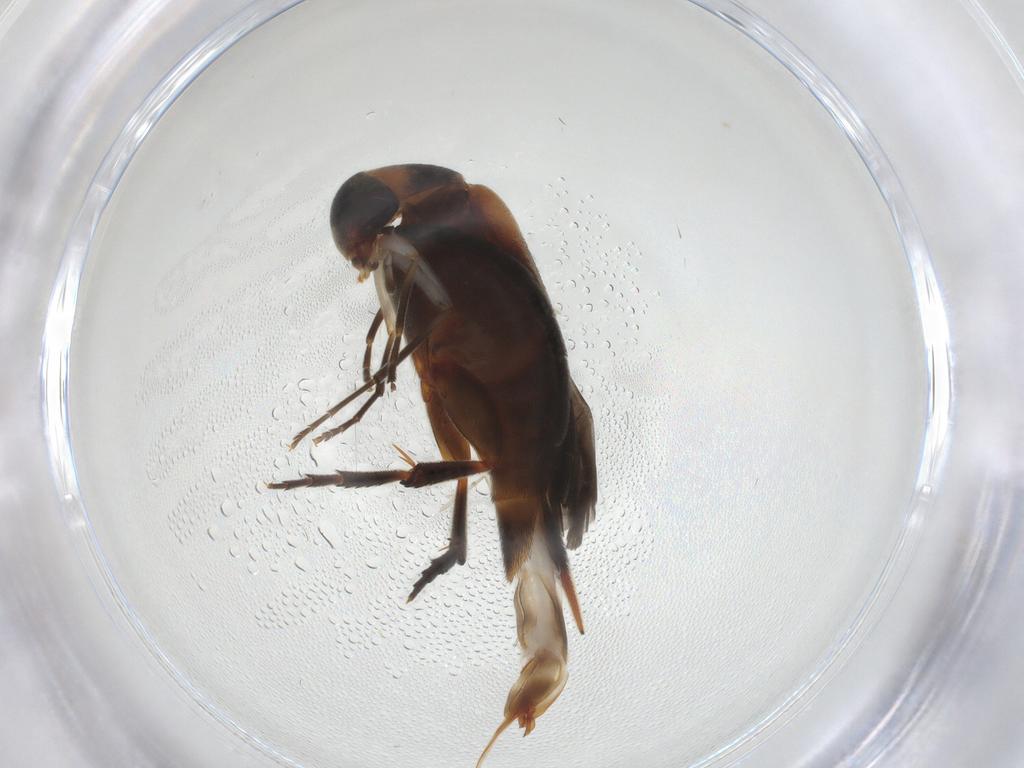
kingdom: Animalia
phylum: Arthropoda
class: Insecta
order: Coleoptera
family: Mordellidae
